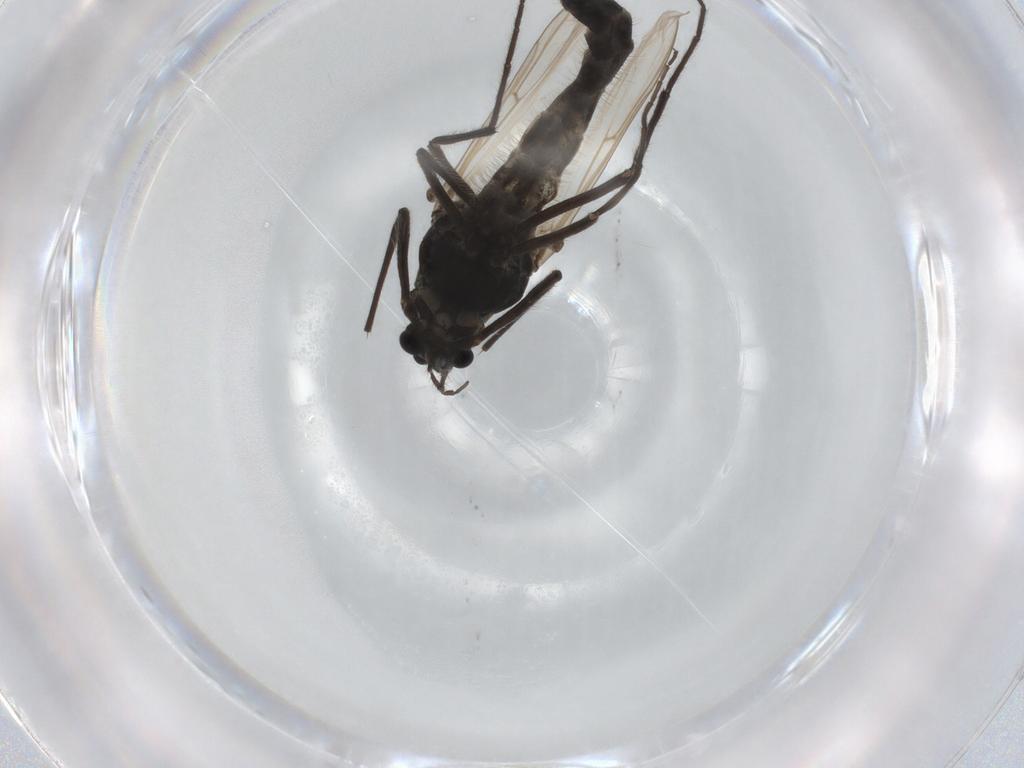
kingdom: Animalia
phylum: Arthropoda
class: Insecta
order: Diptera
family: Chironomidae
